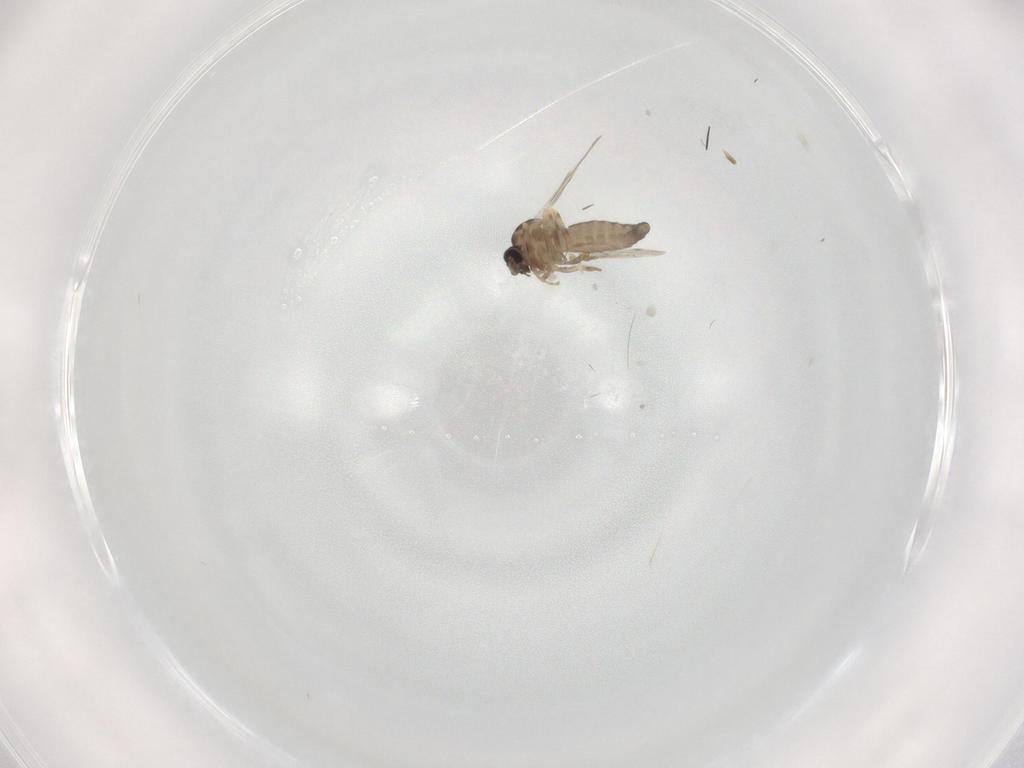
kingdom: Animalia
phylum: Arthropoda
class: Insecta
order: Diptera
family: Ceratopogonidae
